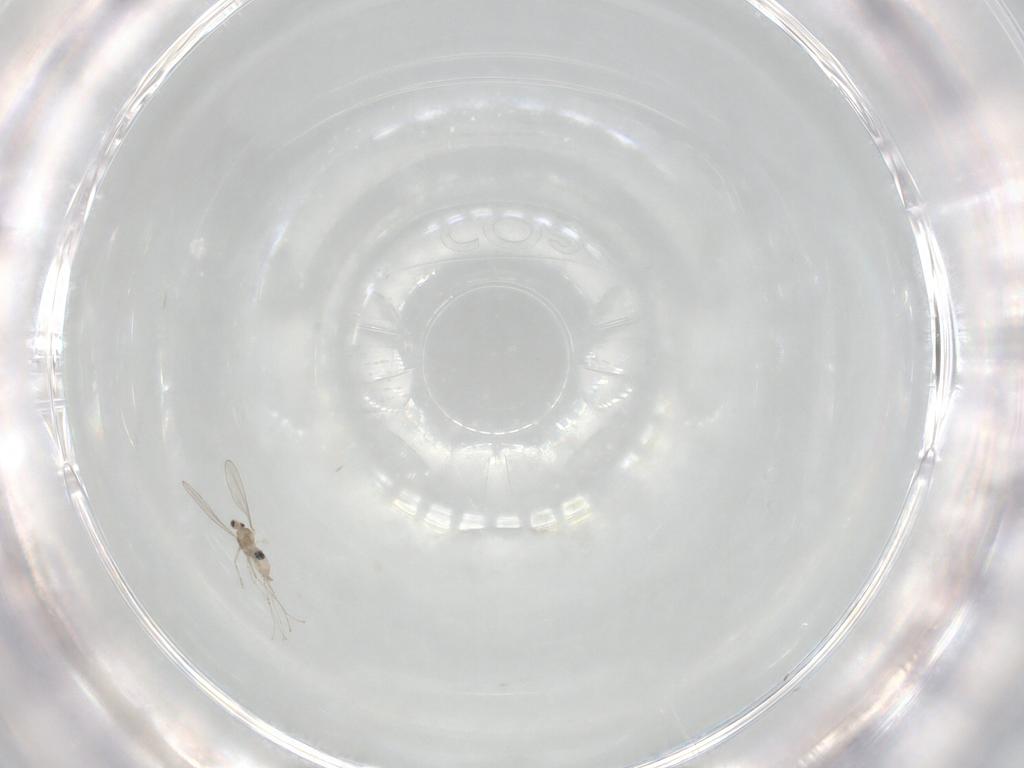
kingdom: Animalia
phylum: Arthropoda
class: Insecta
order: Diptera
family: Cecidomyiidae
